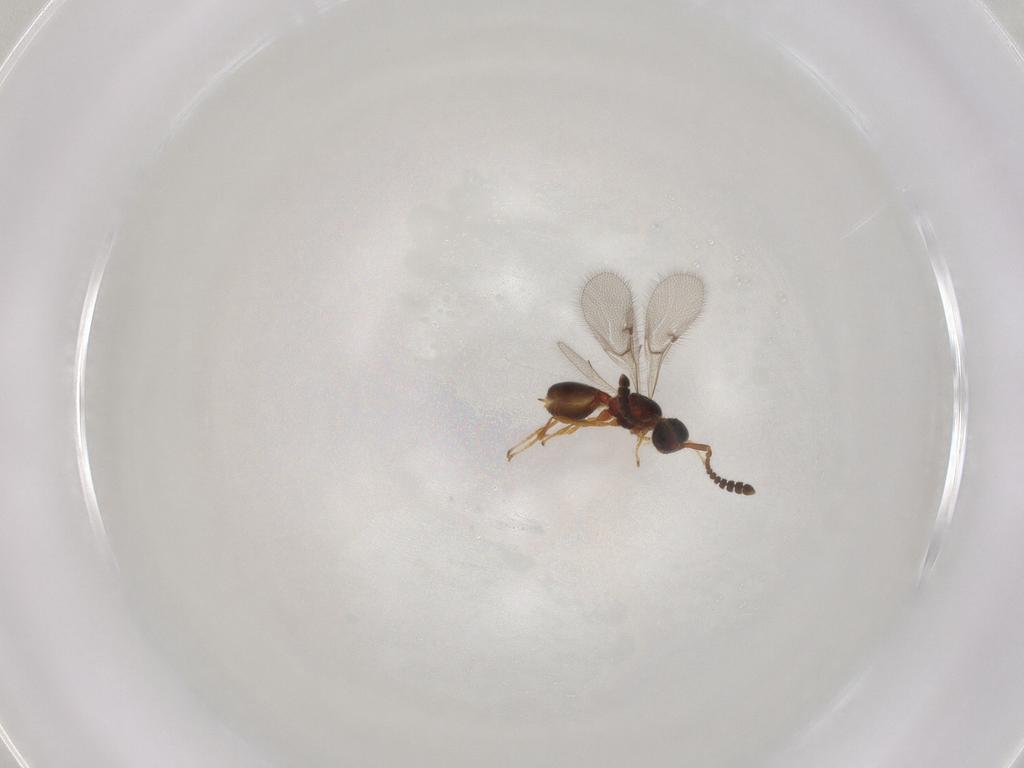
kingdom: Animalia
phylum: Arthropoda
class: Insecta
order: Hymenoptera
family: Diapriidae
